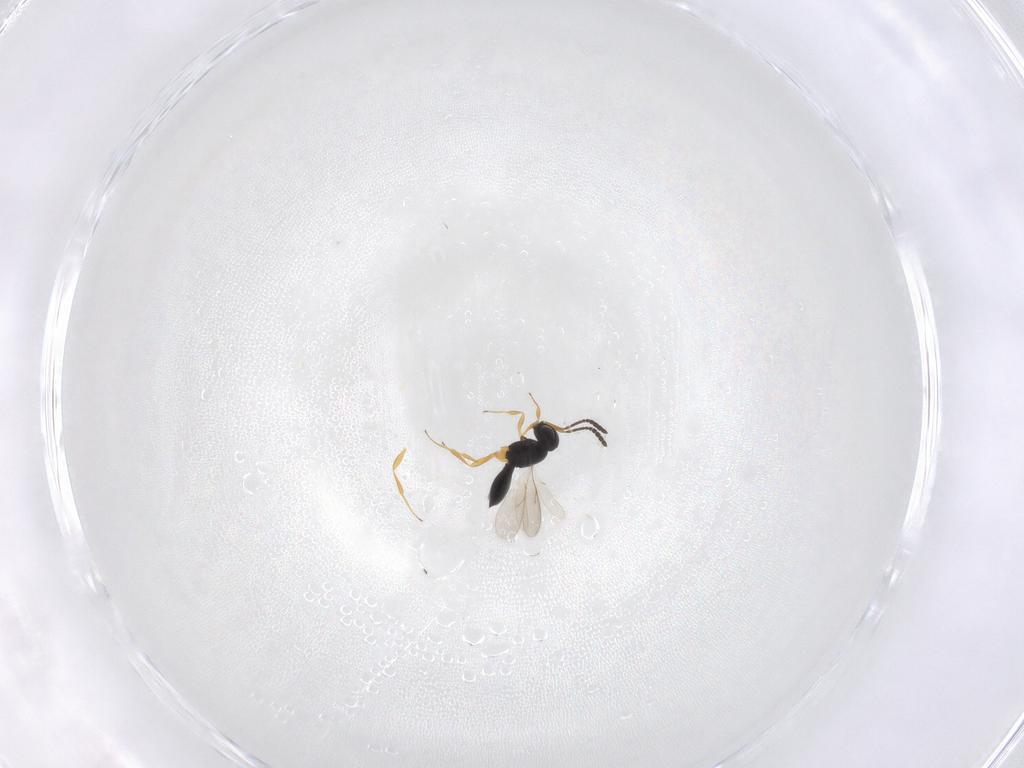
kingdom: Animalia
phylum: Arthropoda
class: Insecta
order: Hymenoptera
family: Scelionidae
